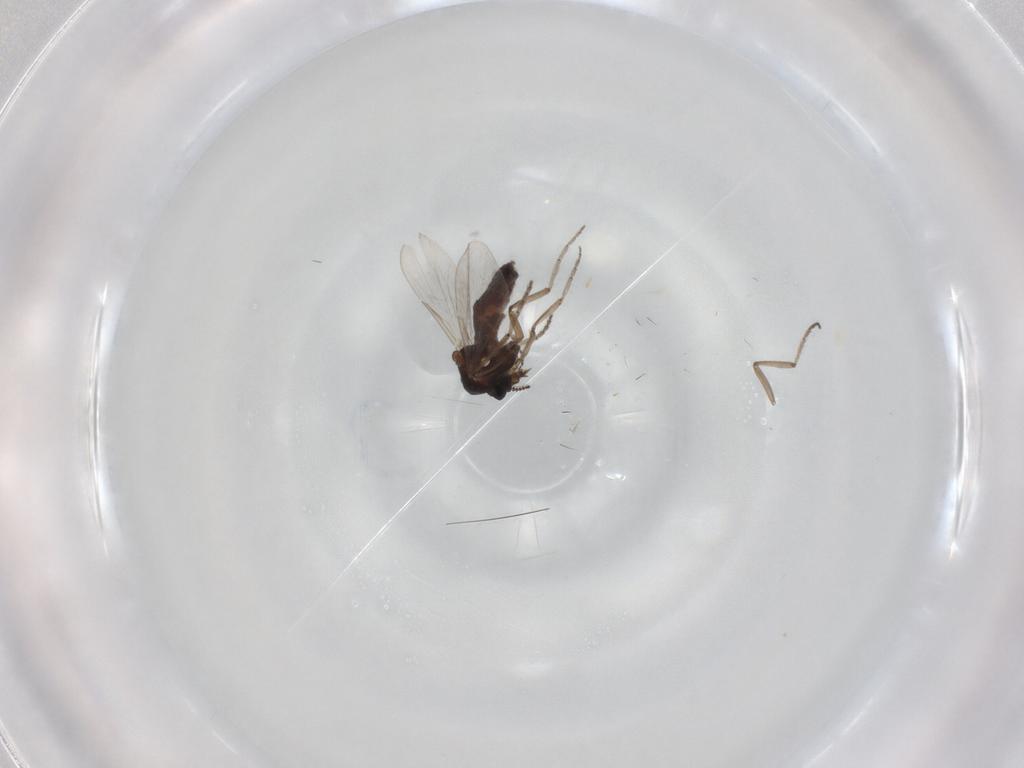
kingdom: Animalia
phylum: Arthropoda
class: Insecta
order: Diptera
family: Ceratopogonidae
